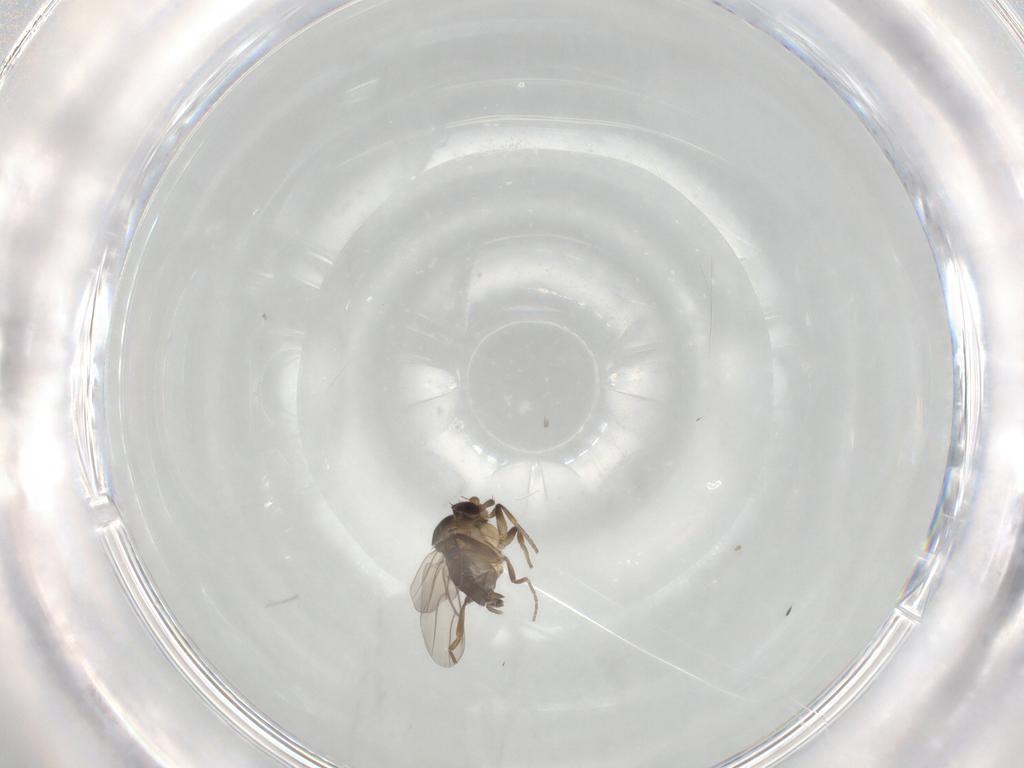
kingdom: Animalia
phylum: Arthropoda
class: Insecta
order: Diptera
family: Phoridae
